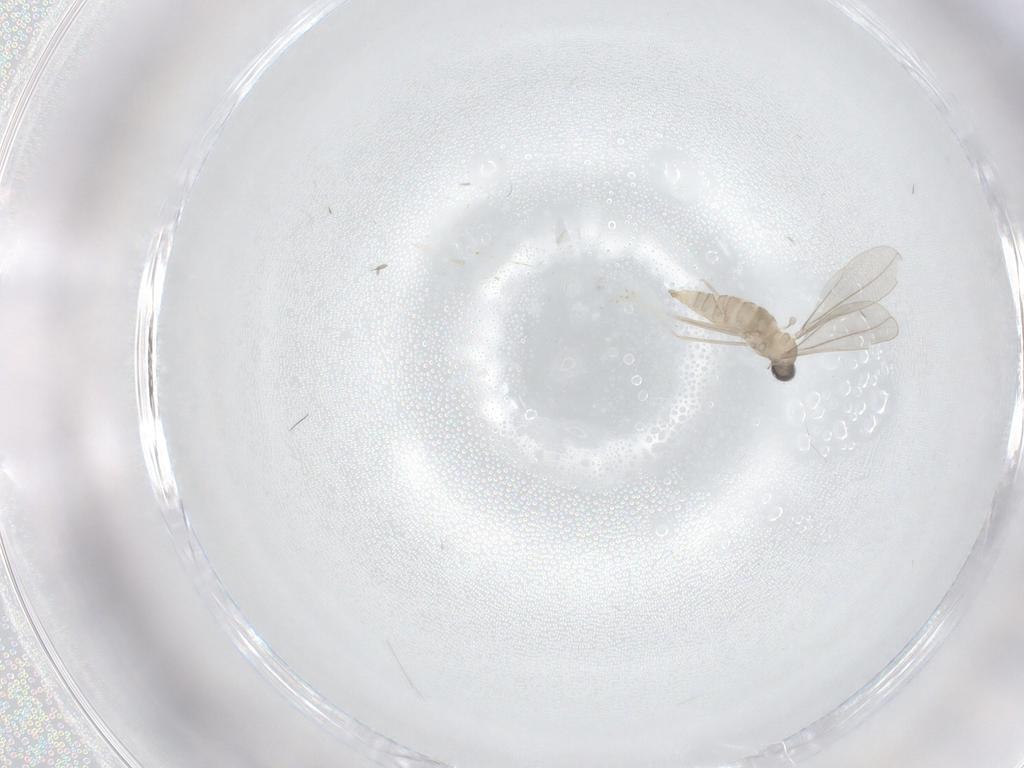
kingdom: Animalia
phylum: Arthropoda
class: Insecta
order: Diptera
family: Cecidomyiidae
